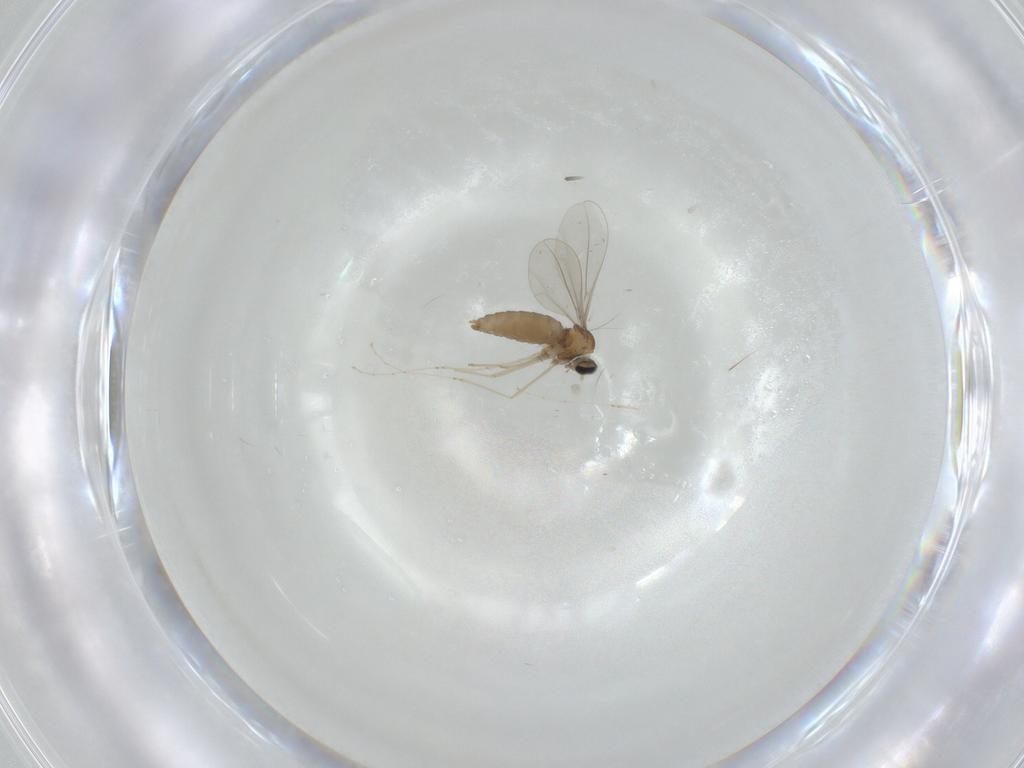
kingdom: Animalia
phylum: Arthropoda
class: Insecta
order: Diptera
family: Cecidomyiidae
